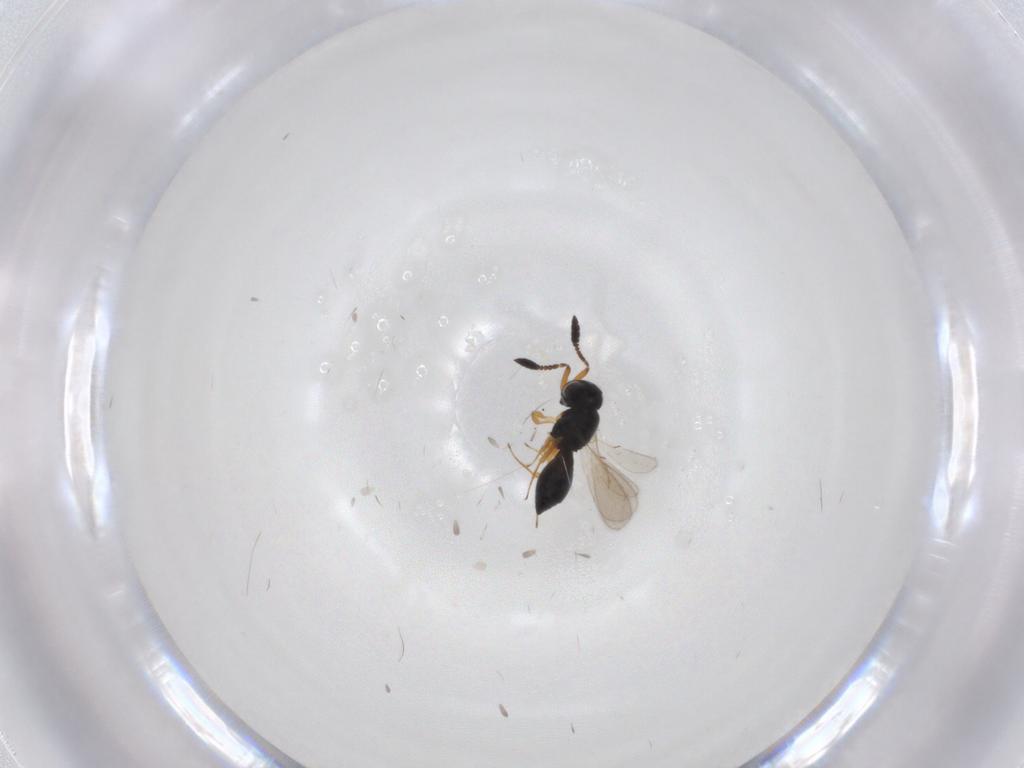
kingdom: Animalia
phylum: Arthropoda
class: Insecta
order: Hymenoptera
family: Scelionidae
